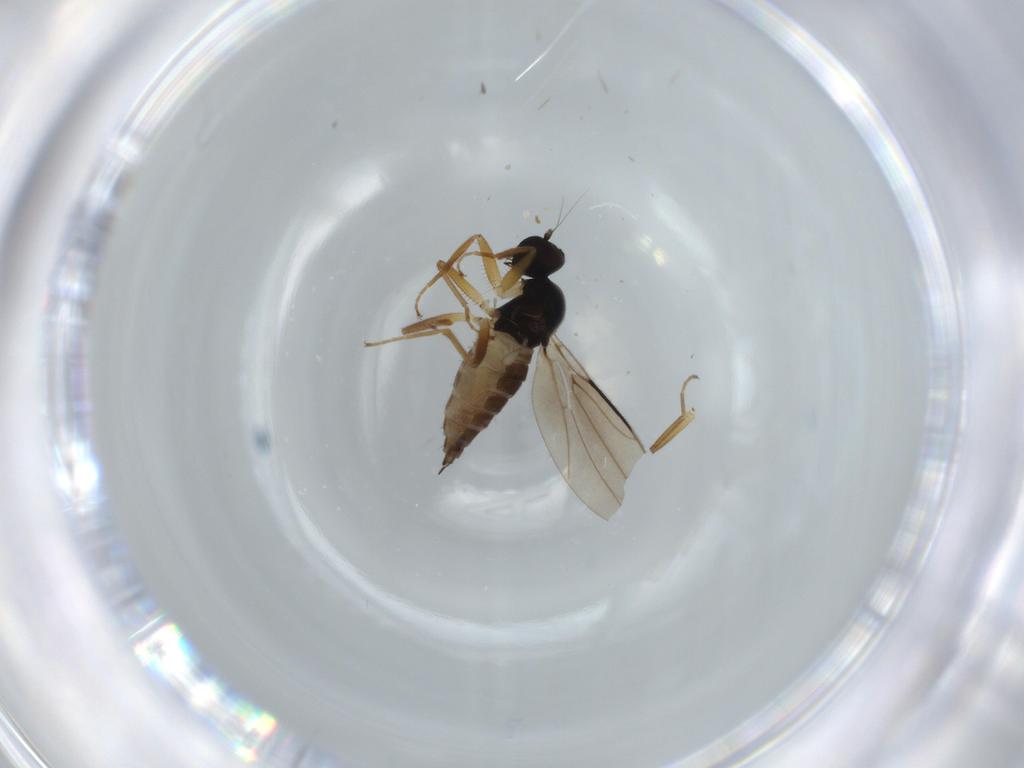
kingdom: Animalia
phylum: Arthropoda
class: Insecta
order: Diptera
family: Hybotidae
